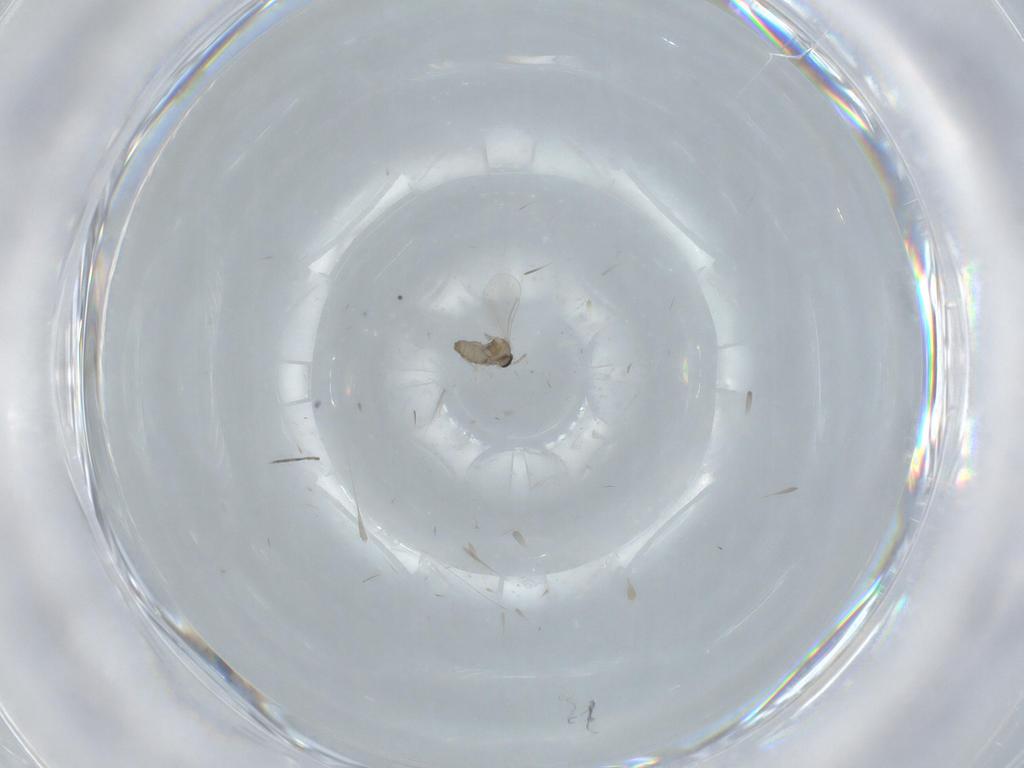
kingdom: Animalia
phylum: Arthropoda
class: Insecta
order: Diptera
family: Cecidomyiidae
